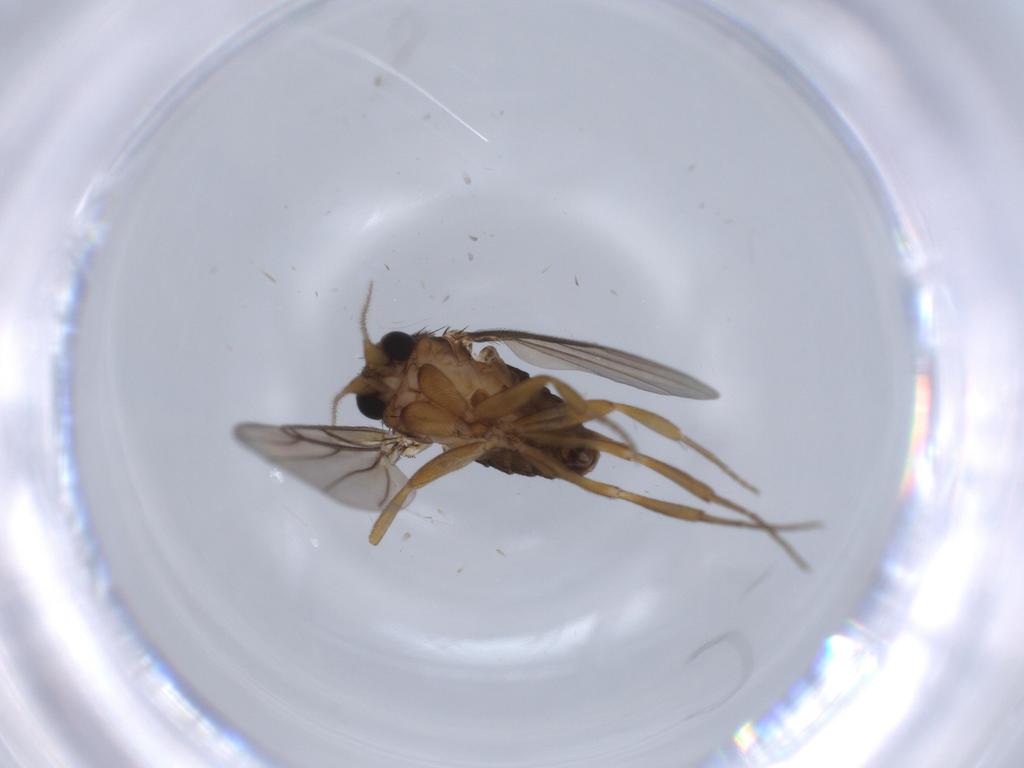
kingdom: Animalia
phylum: Arthropoda
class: Insecta
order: Diptera
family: Phoridae
